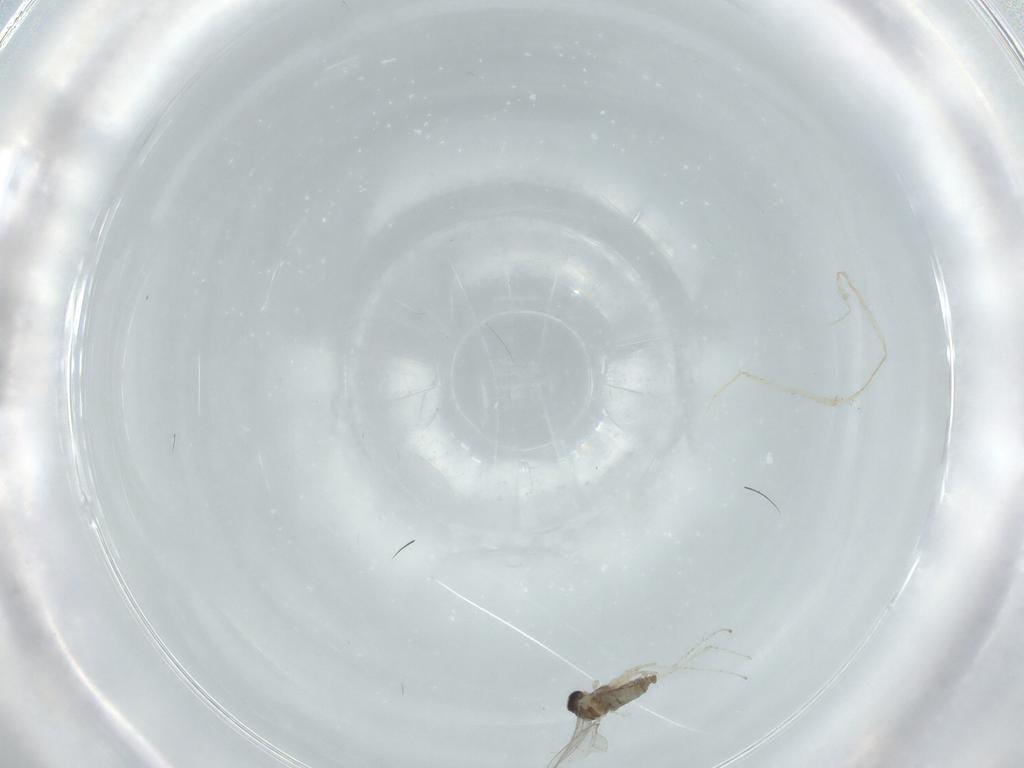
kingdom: Animalia
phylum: Arthropoda
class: Insecta
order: Diptera
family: Cecidomyiidae
